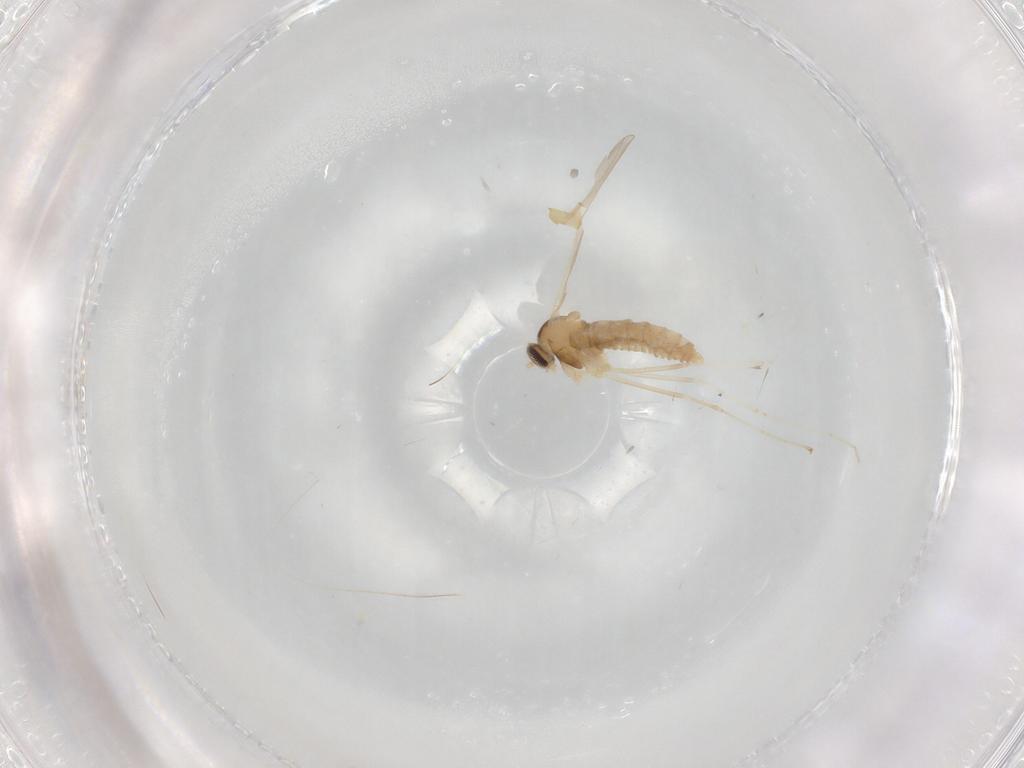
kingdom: Animalia
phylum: Arthropoda
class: Insecta
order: Diptera
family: Cecidomyiidae
